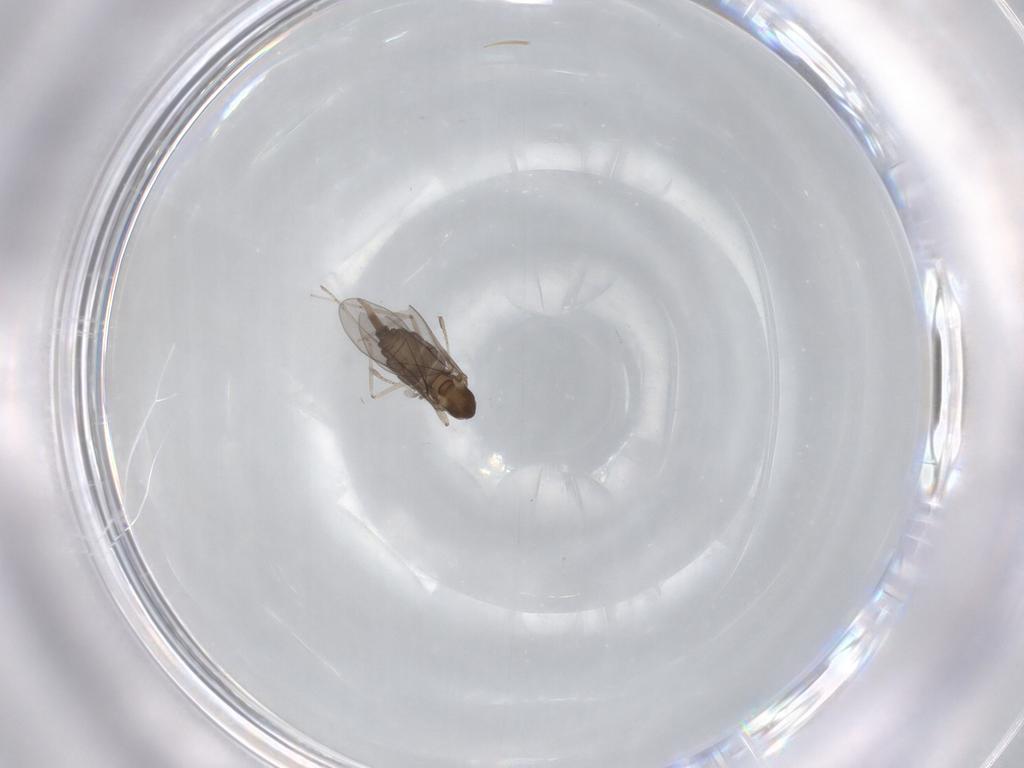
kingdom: Animalia
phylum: Arthropoda
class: Insecta
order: Diptera
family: Cecidomyiidae
